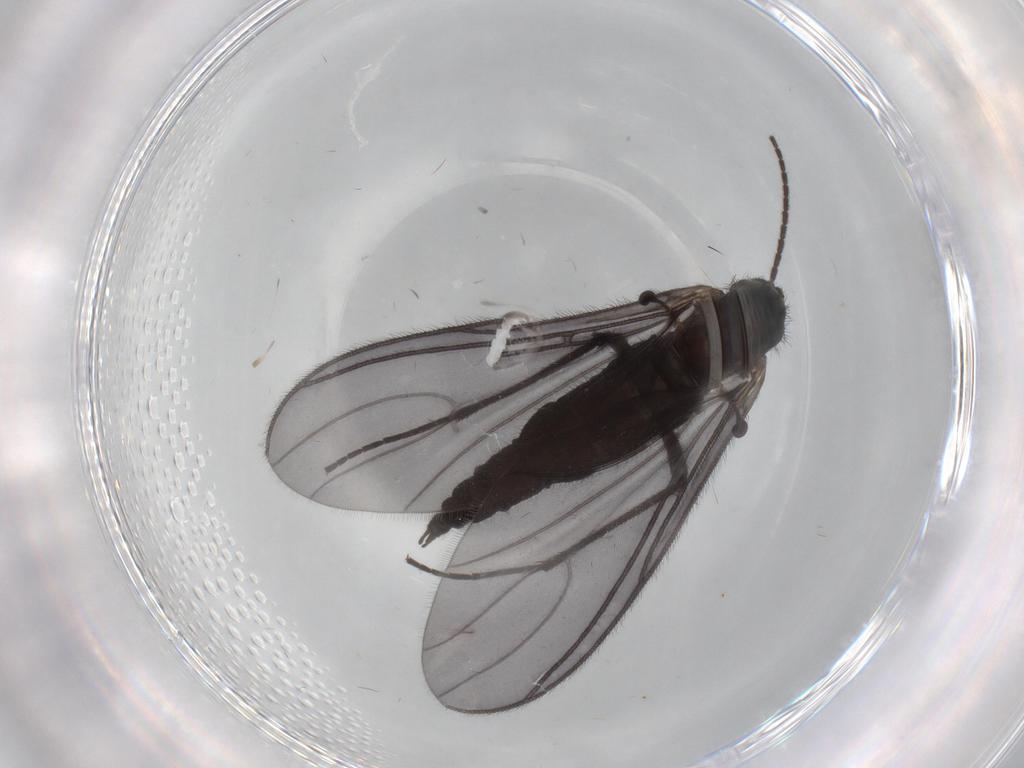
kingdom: Animalia
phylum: Arthropoda
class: Insecta
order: Diptera
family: Sciaridae
